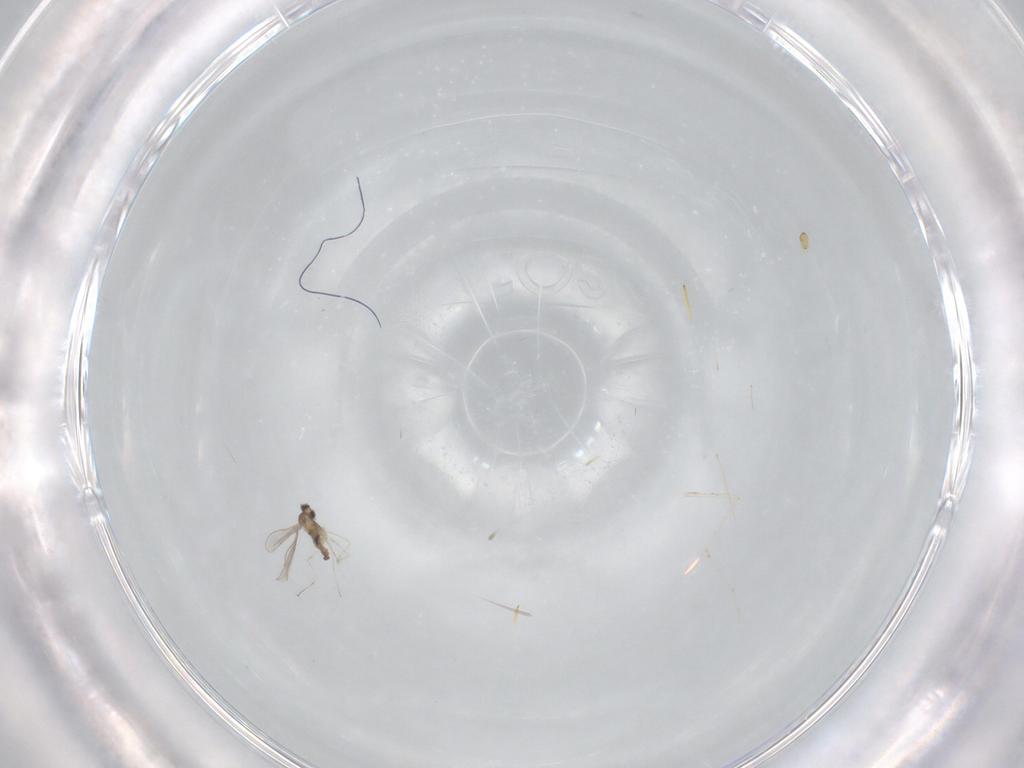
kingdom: Animalia
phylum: Arthropoda
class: Insecta
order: Diptera
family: Cecidomyiidae
